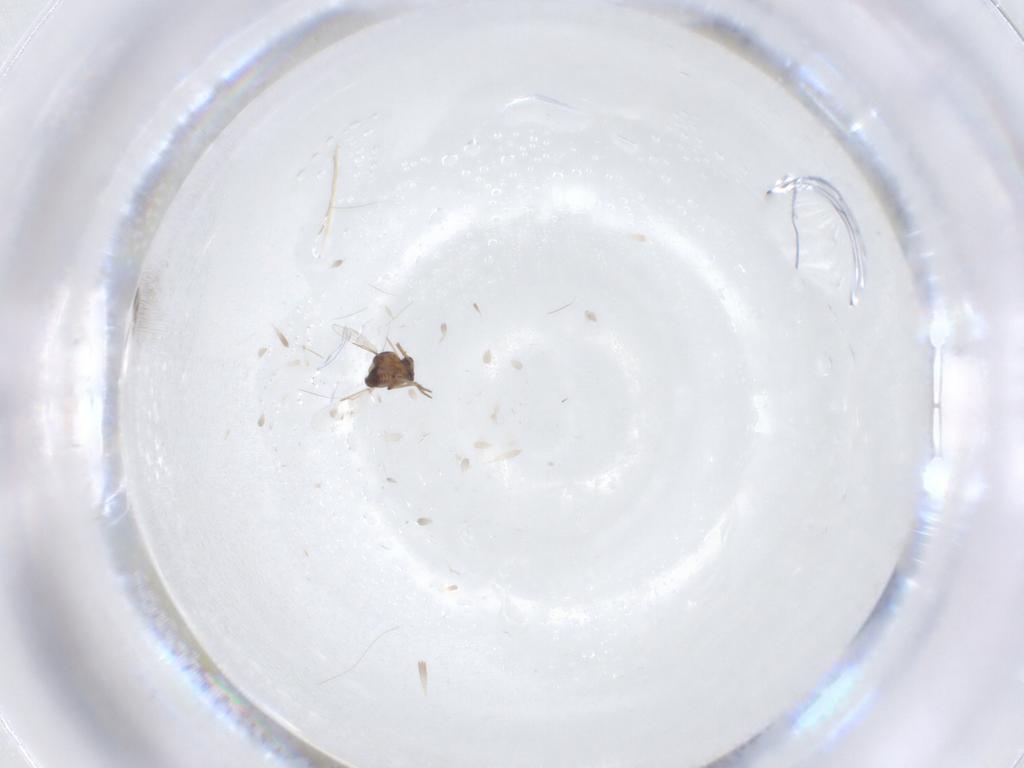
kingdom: Animalia
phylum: Arthropoda
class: Insecta
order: Diptera
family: Ceratopogonidae
